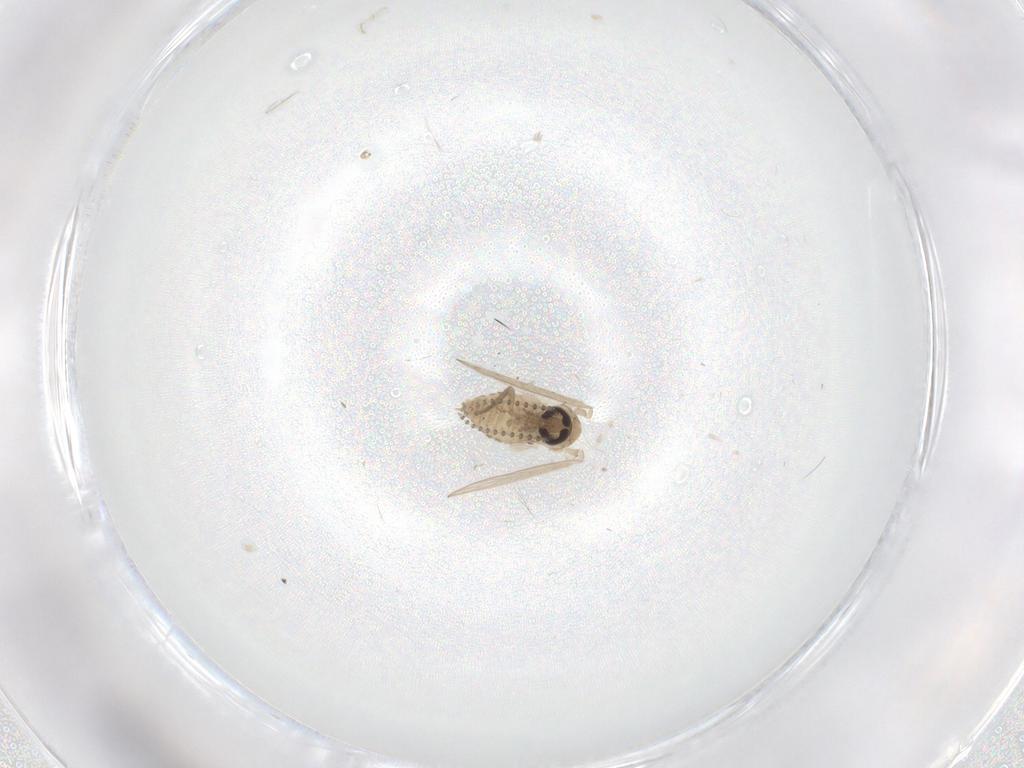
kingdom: Animalia
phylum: Arthropoda
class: Insecta
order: Diptera
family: Psychodidae
